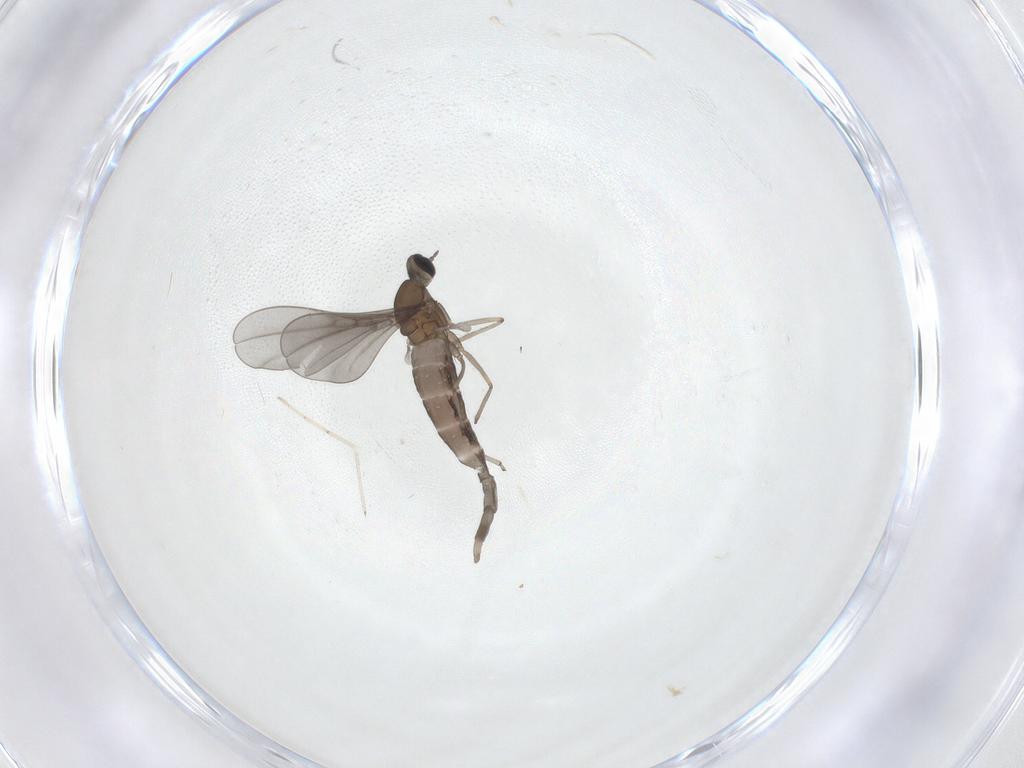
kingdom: Animalia
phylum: Arthropoda
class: Insecta
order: Diptera
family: Cecidomyiidae
